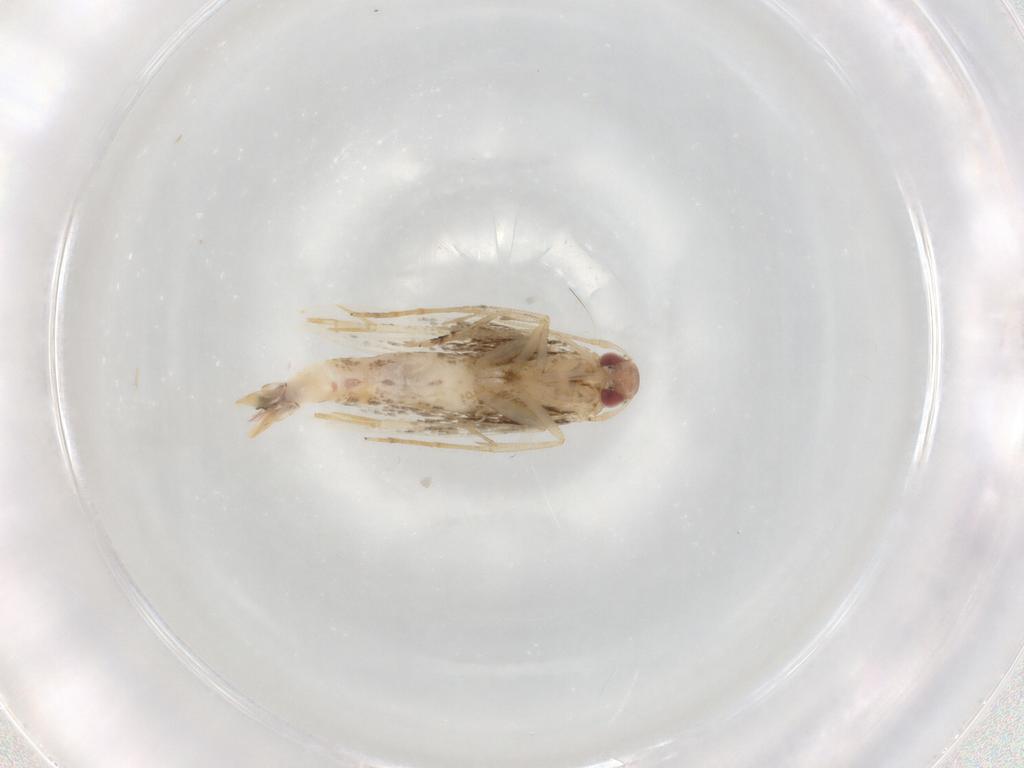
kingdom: Animalia
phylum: Arthropoda
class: Insecta
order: Lepidoptera
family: Cosmopterigidae
